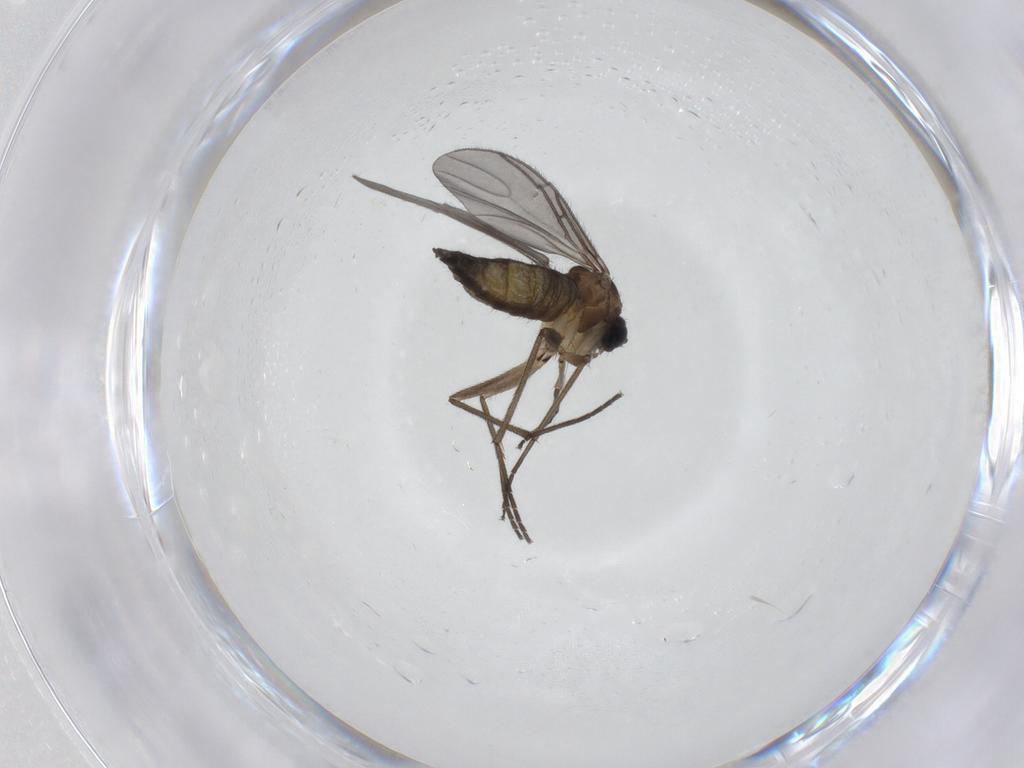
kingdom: Animalia
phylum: Arthropoda
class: Insecta
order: Diptera
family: Sciaridae
